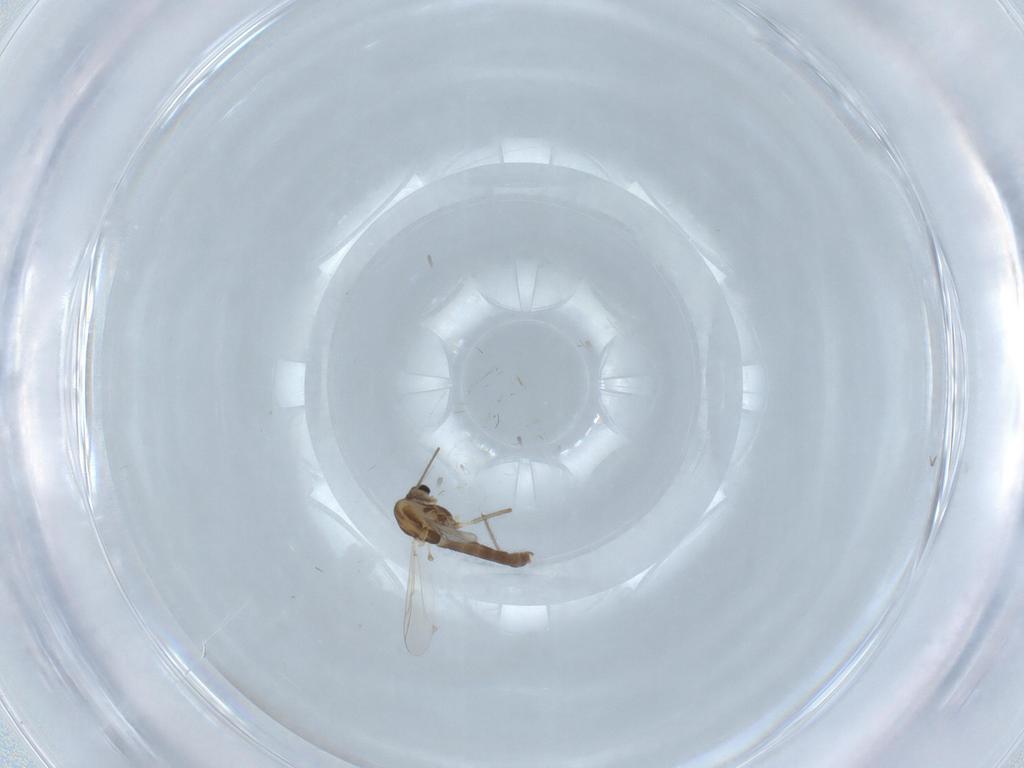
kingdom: Animalia
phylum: Arthropoda
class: Insecta
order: Diptera
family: Chironomidae
